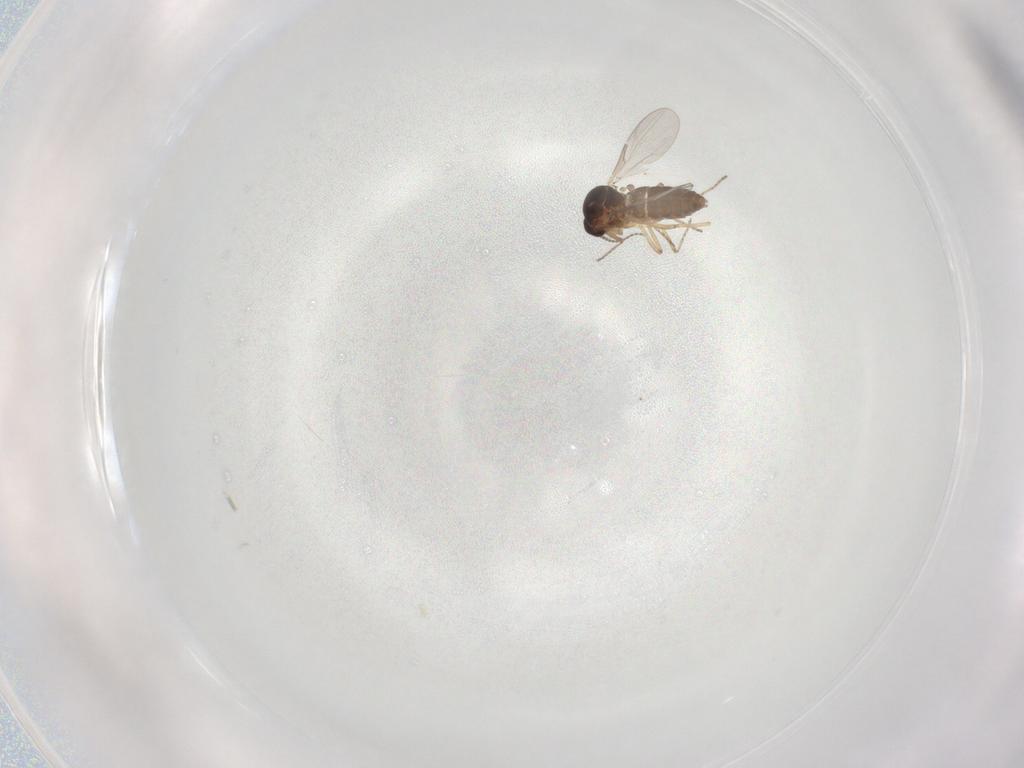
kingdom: Animalia
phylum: Arthropoda
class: Insecta
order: Diptera
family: Ceratopogonidae
